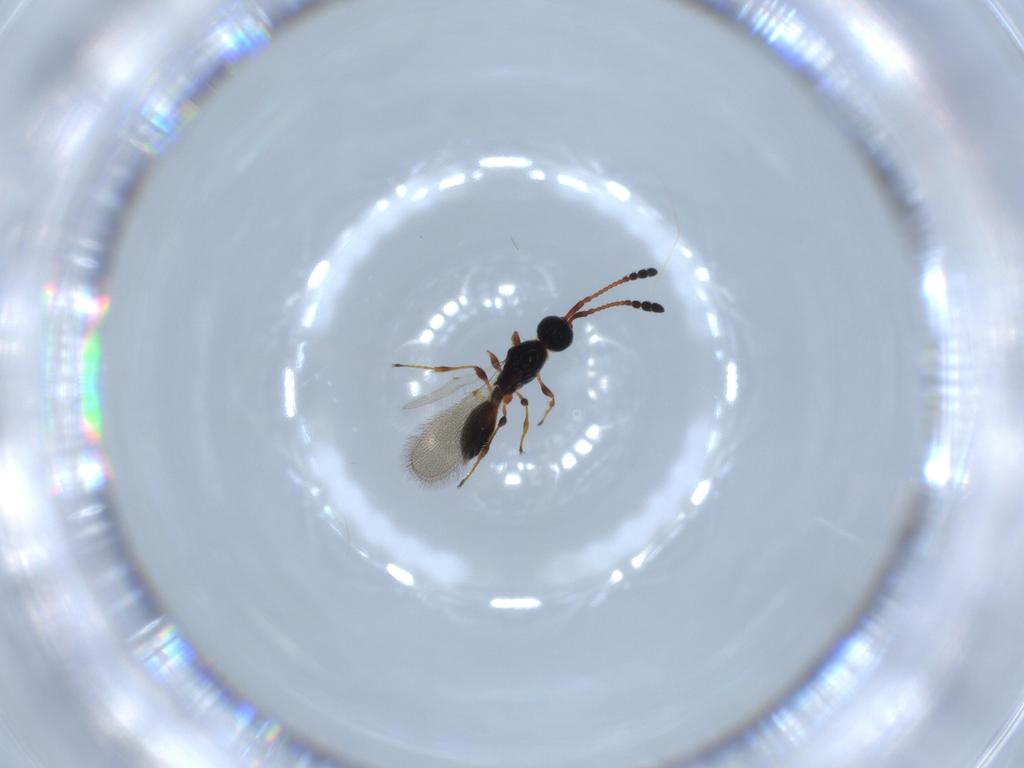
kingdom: Animalia
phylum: Arthropoda
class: Insecta
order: Hymenoptera
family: Diapriidae
